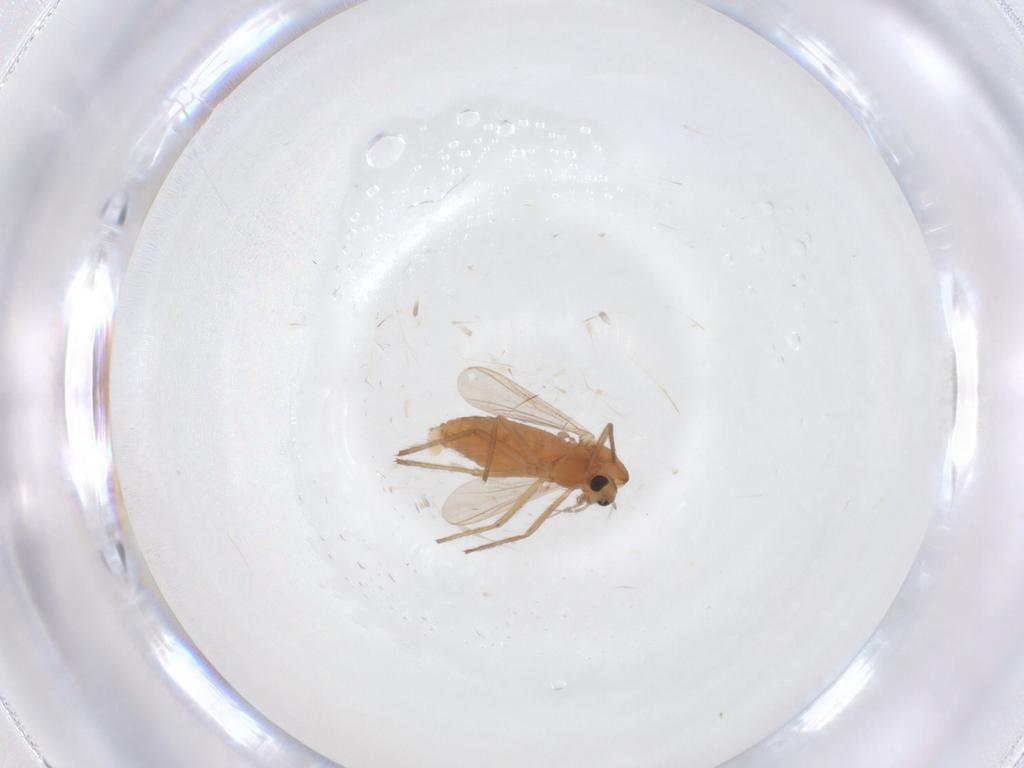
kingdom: Animalia
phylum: Arthropoda
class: Insecta
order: Diptera
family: Chironomidae
